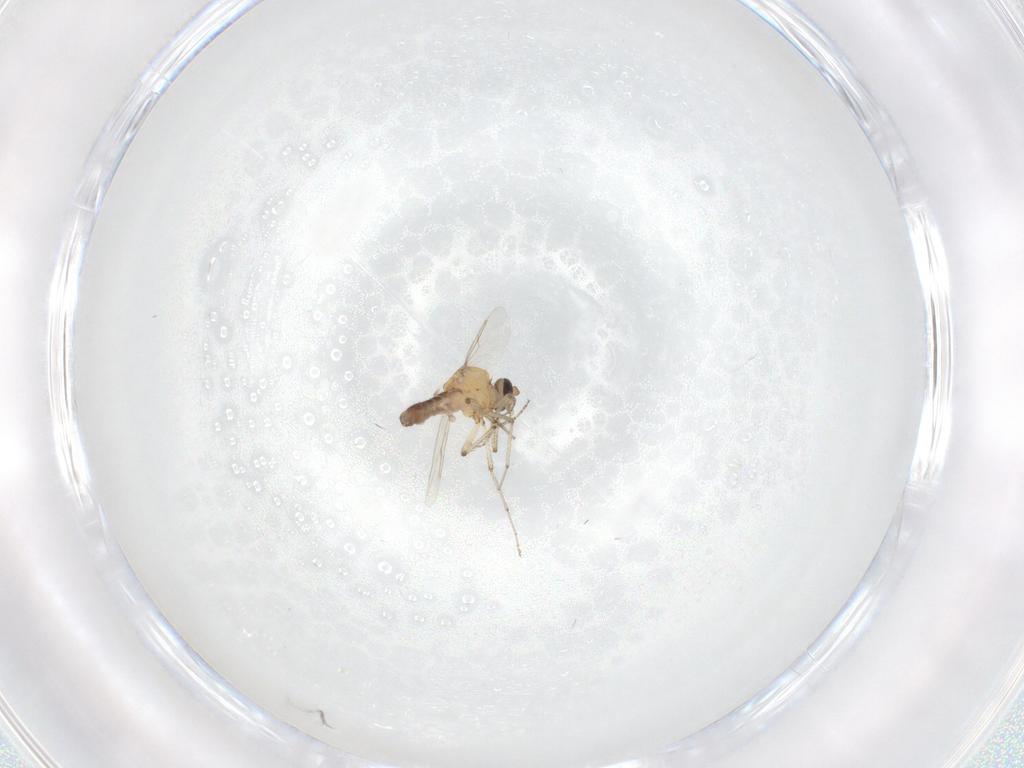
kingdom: Animalia
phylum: Arthropoda
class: Insecta
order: Diptera
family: Ceratopogonidae
